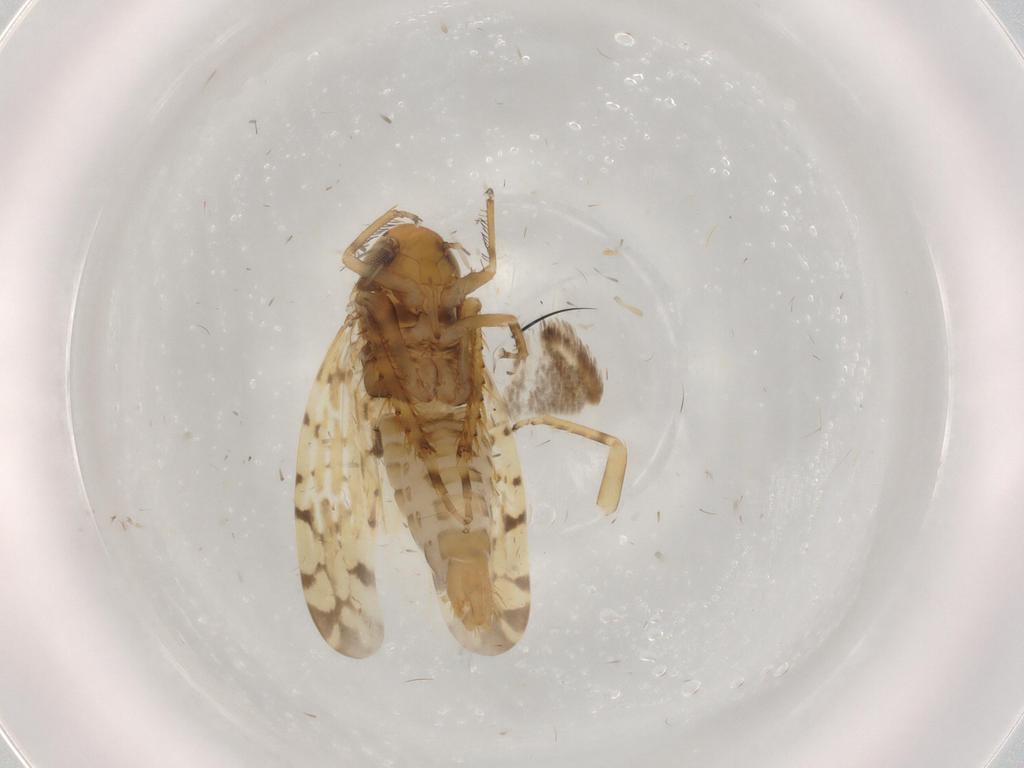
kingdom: Animalia
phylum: Arthropoda
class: Insecta
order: Hemiptera
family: Cicadellidae
